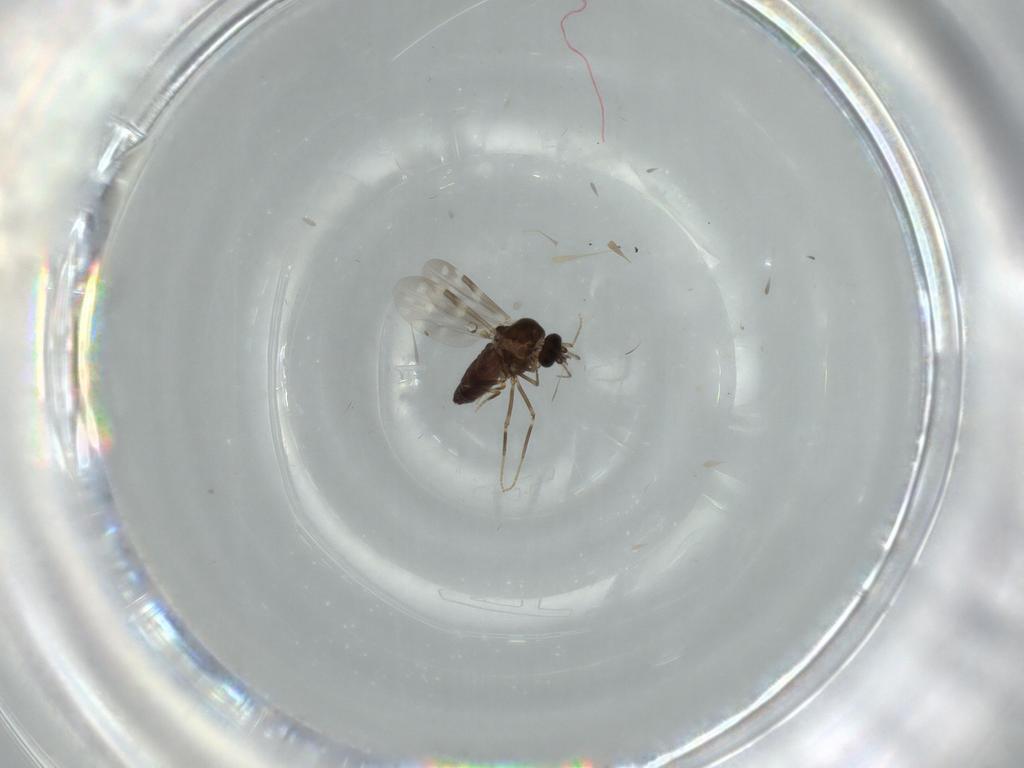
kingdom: Animalia
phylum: Arthropoda
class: Insecta
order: Diptera
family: Ceratopogonidae
